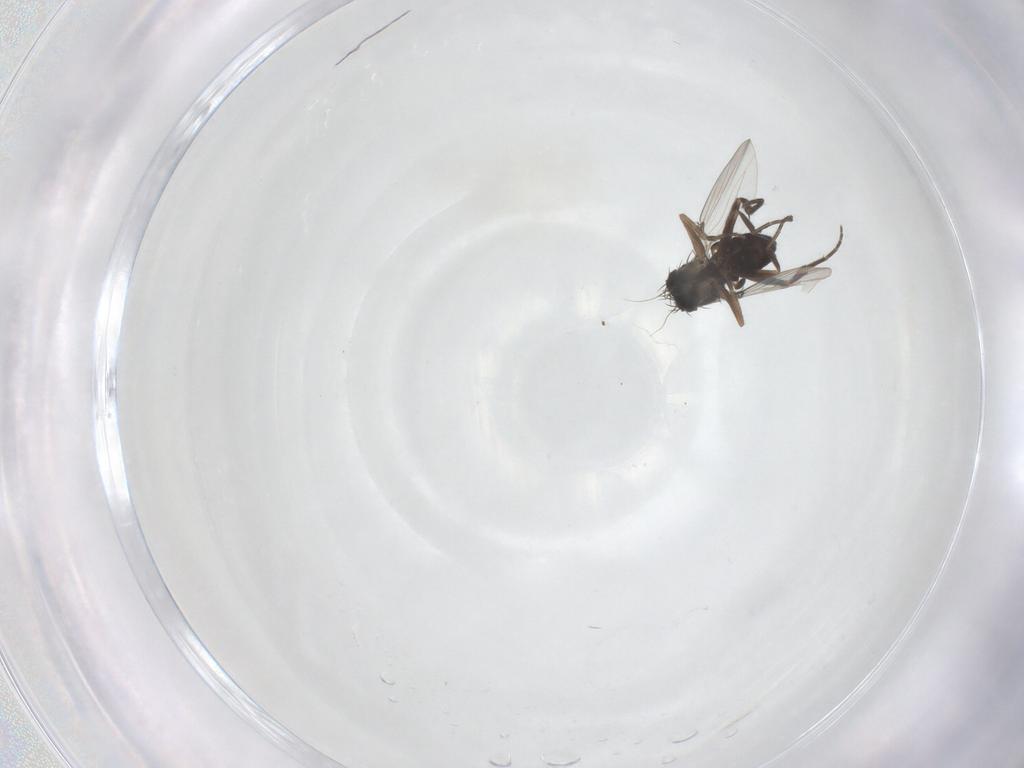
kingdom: Animalia
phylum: Arthropoda
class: Insecta
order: Diptera
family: Phoridae
